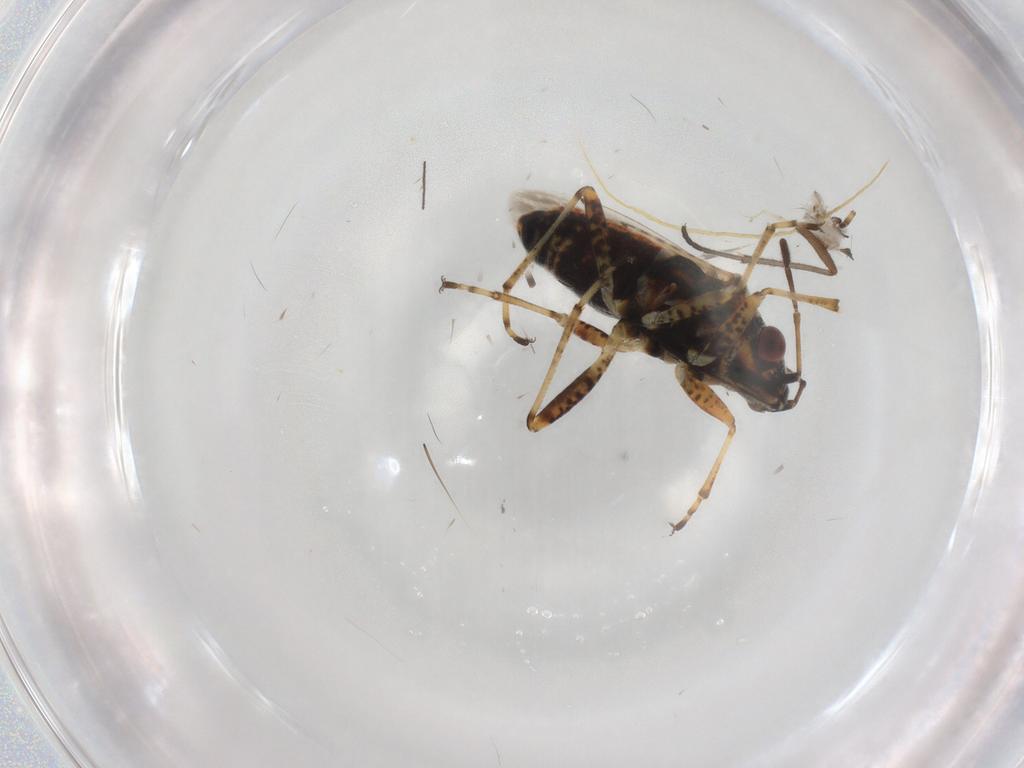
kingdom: Animalia
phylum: Arthropoda
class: Insecta
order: Hemiptera
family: Lygaeidae
